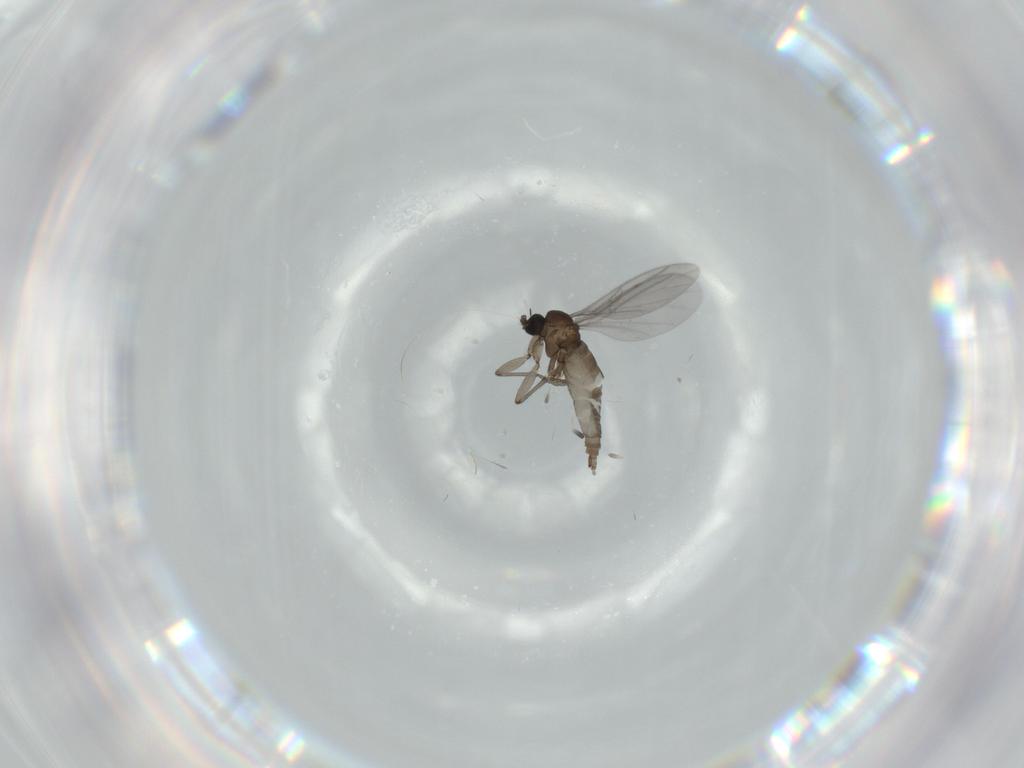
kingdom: Animalia
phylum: Arthropoda
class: Insecta
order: Diptera
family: Sciaridae
